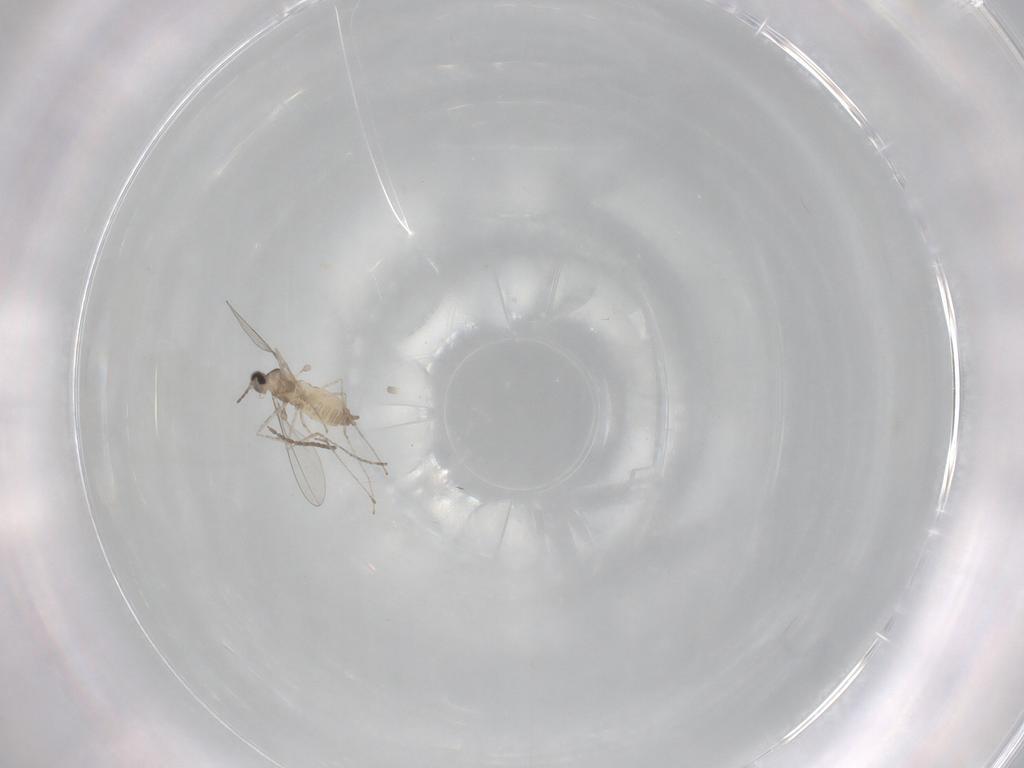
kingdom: Animalia
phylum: Arthropoda
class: Insecta
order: Diptera
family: Cecidomyiidae
